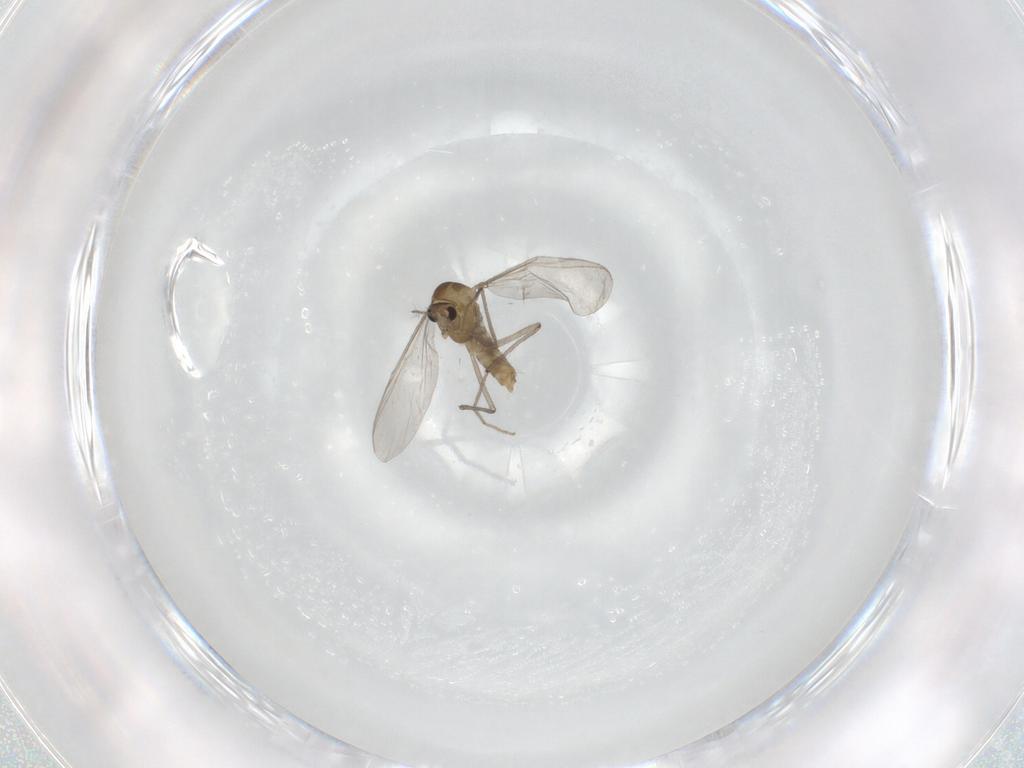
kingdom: Animalia
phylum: Arthropoda
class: Insecta
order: Diptera
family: Chironomidae
